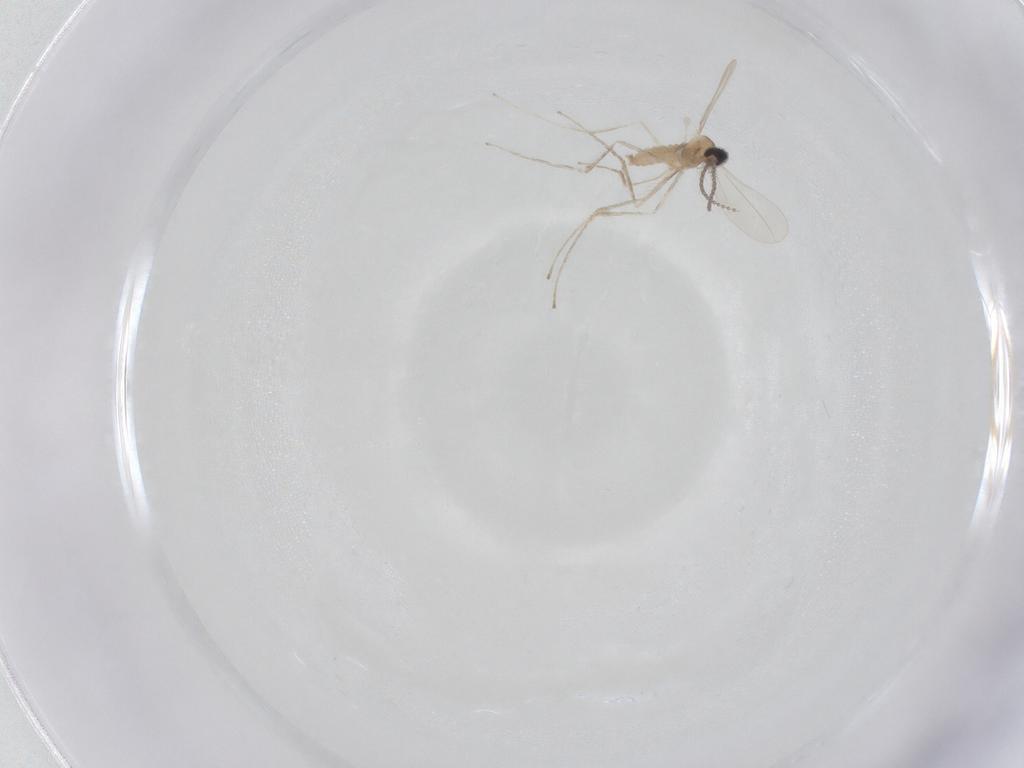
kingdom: Animalia
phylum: Arthropoda
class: Insecta
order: Diptera
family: Cecidomyiidae
